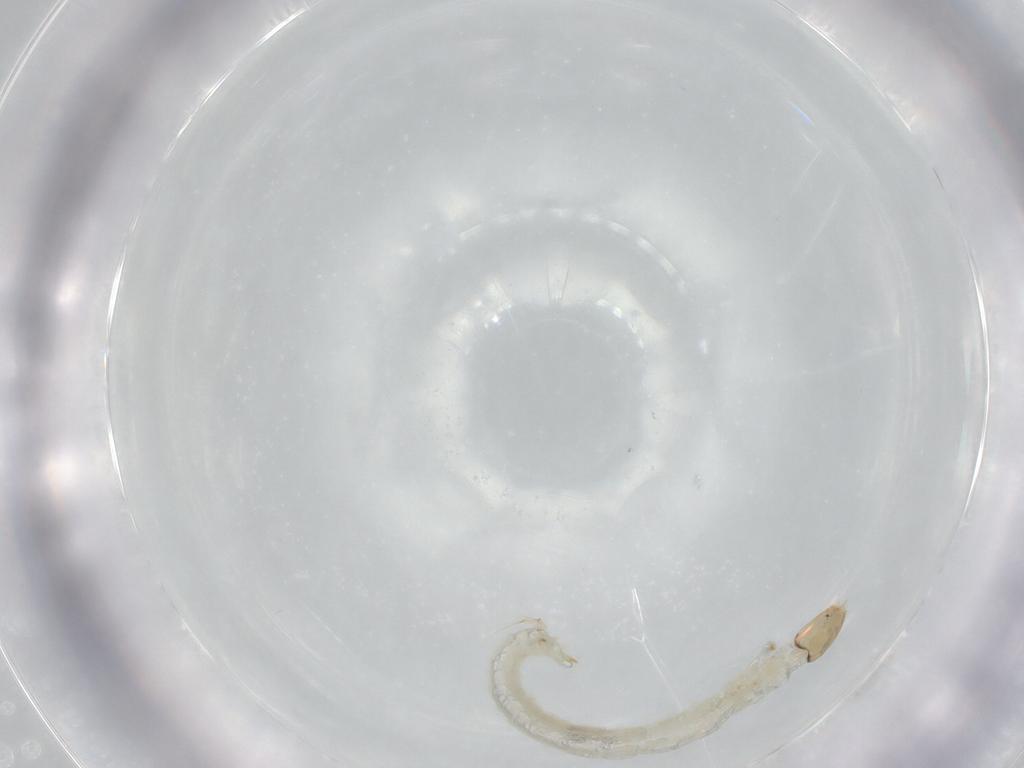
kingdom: Animalia
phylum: Arthropoda
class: Insecta
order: Diptera
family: Chironomidae
